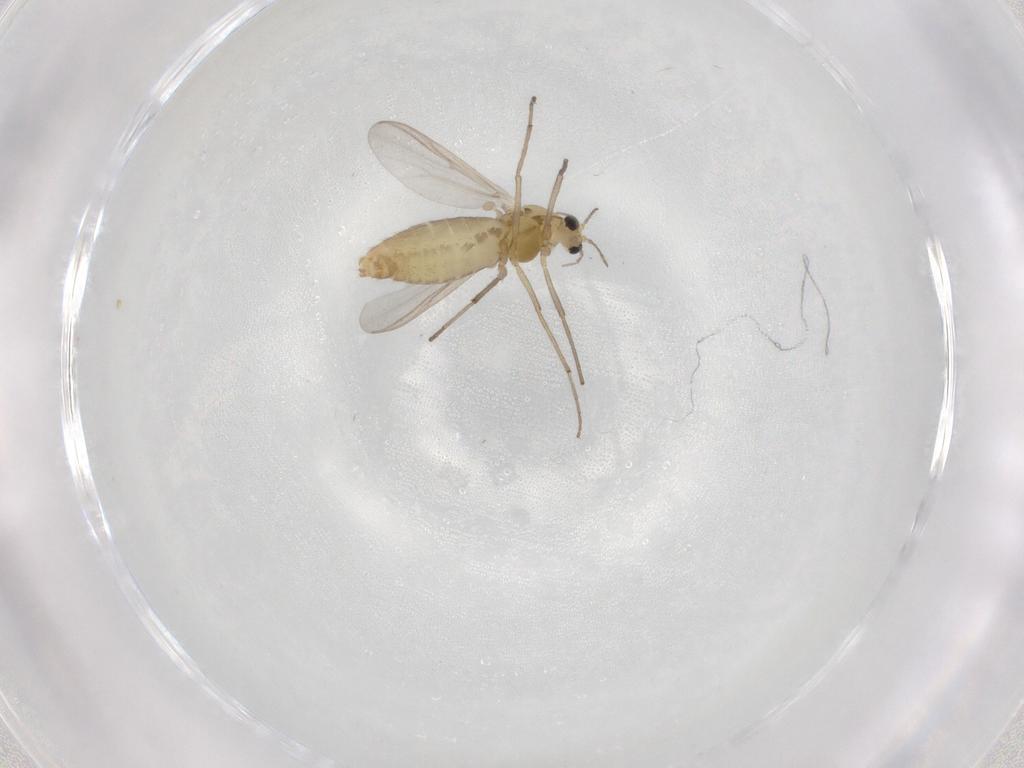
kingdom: Animalia
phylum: Arthropoda
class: Insecta
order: Diptera
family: Chironomidae
